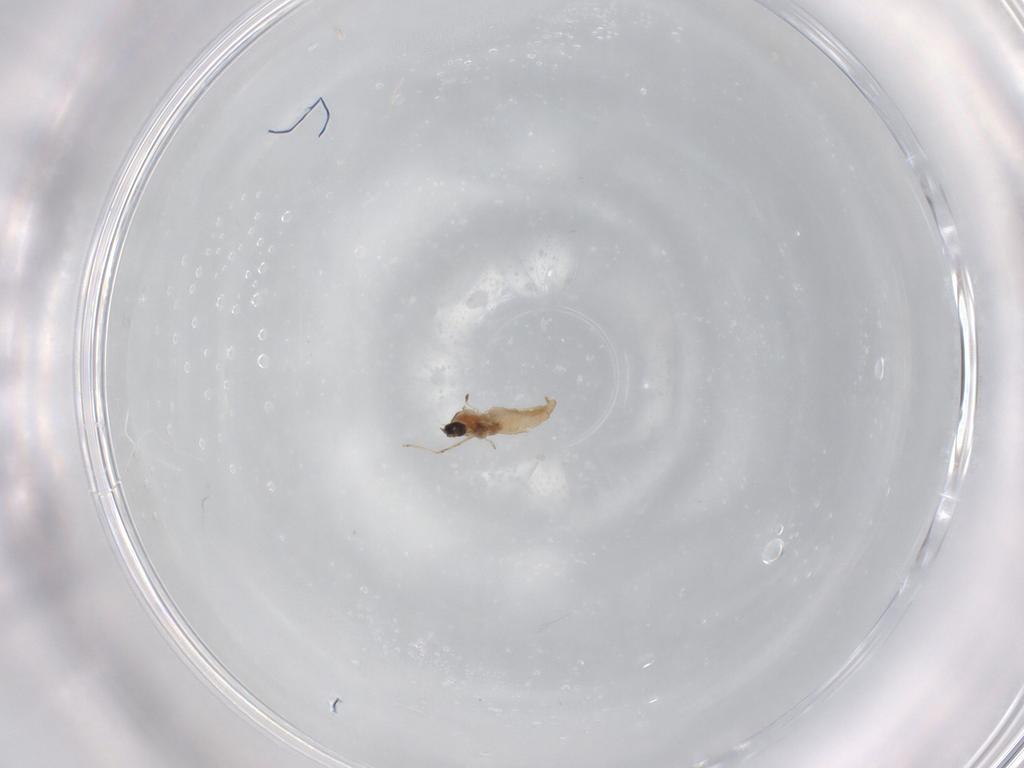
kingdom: Animalia
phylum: Arthropoda
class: Insecta
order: Diptera
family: Cecidomyiidae
